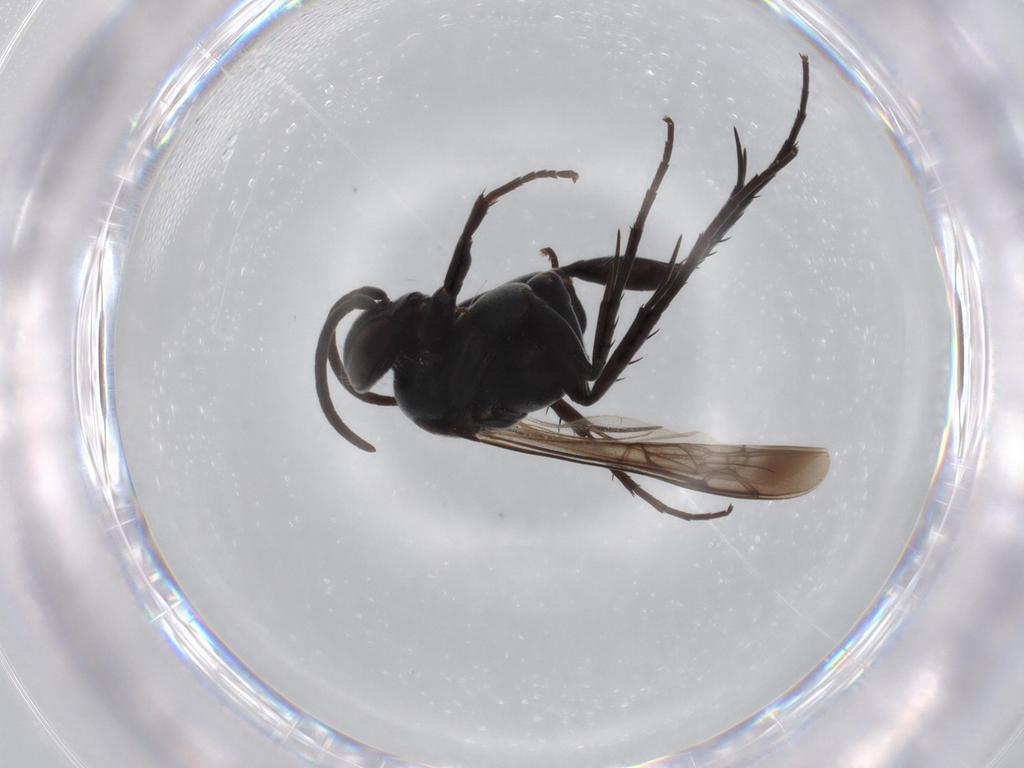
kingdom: Animalia
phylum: Arthropoda
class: Insecta
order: Hymenoptera
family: Pompilidae
